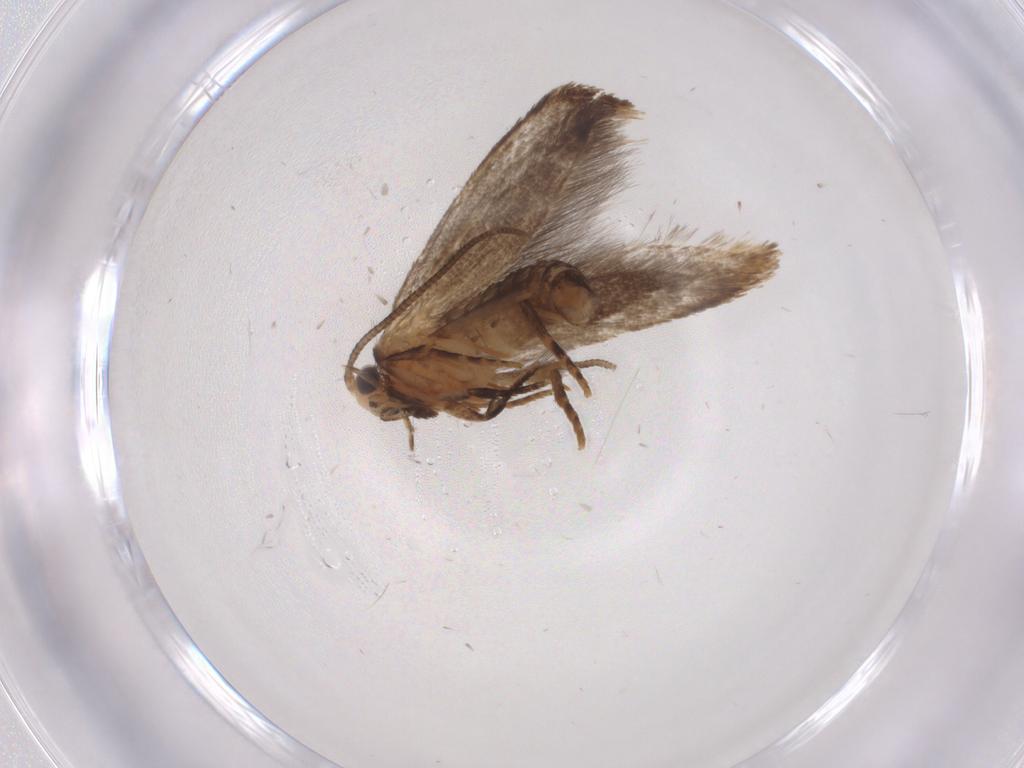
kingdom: Animalia
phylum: Arthropoda
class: Insecta
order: Lepidoptera
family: Tineidae
